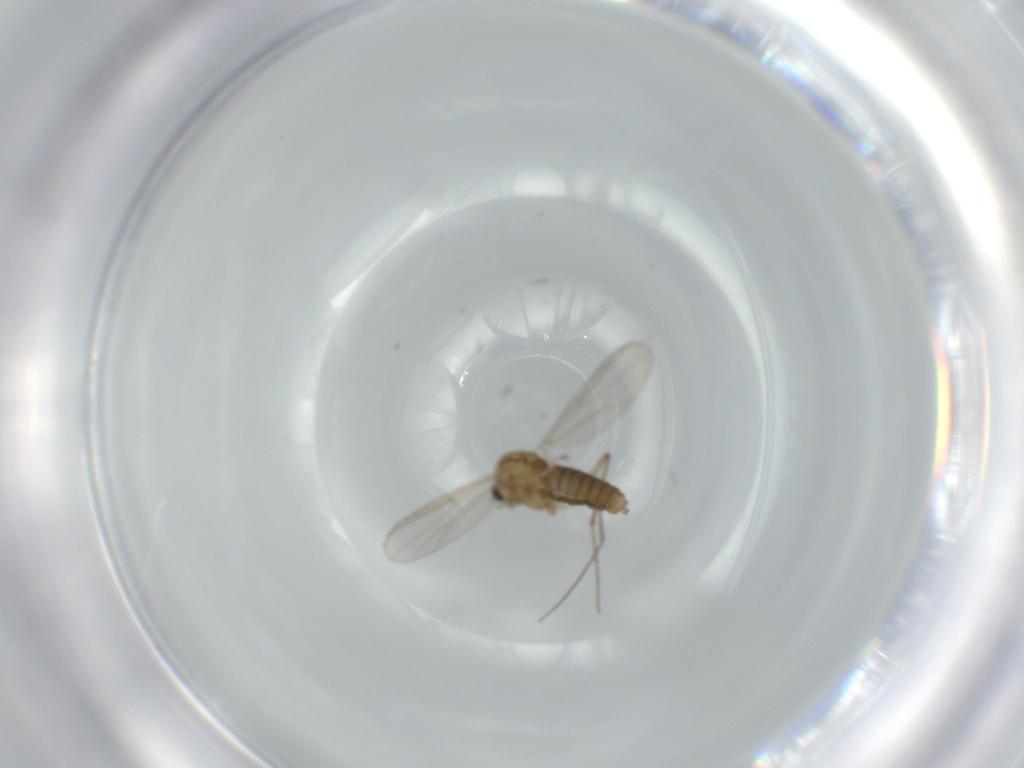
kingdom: Animalia
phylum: Arthropoda
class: Insecta
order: Diptera
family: Chironomidae
